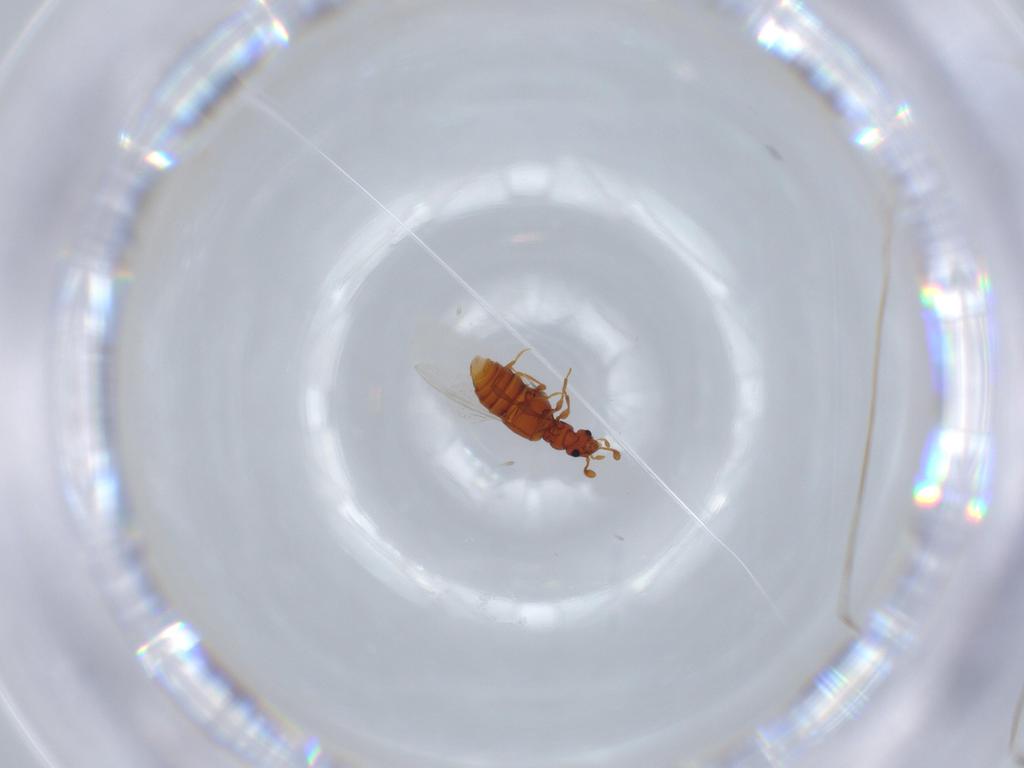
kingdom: Animalia
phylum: Arthropoda
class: Insecta
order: Coleoptera
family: Staphylinidae
